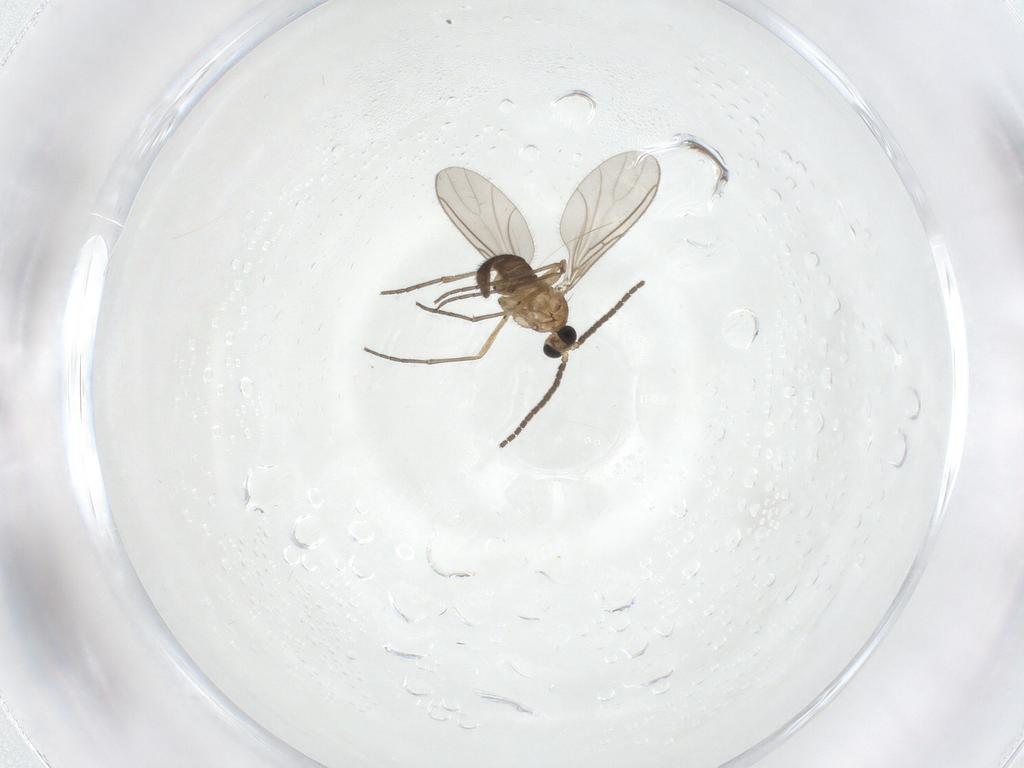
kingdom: Animalia
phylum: Arthropoda
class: Insecta
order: Diptera
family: Sciaridae
